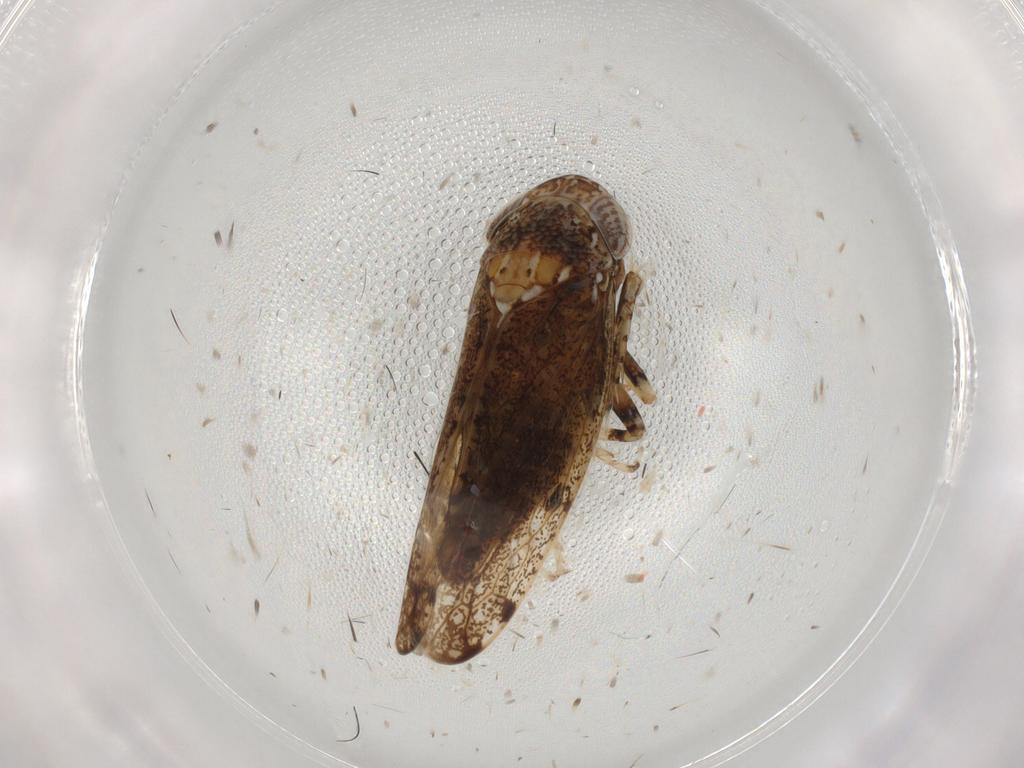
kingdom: Animalia
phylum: Arthropoda
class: Insecta
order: Hemiptera
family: Cicadellidae
